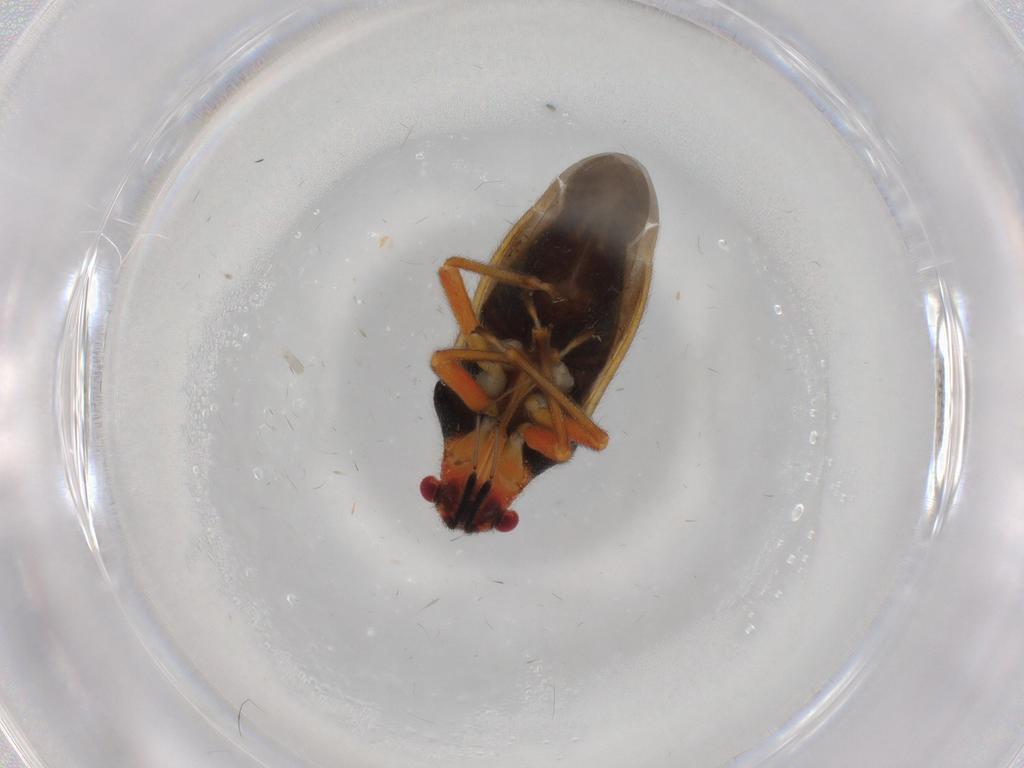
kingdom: Animalia
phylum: Arthropoda
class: Insecta
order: Hemiptera
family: Miridae
